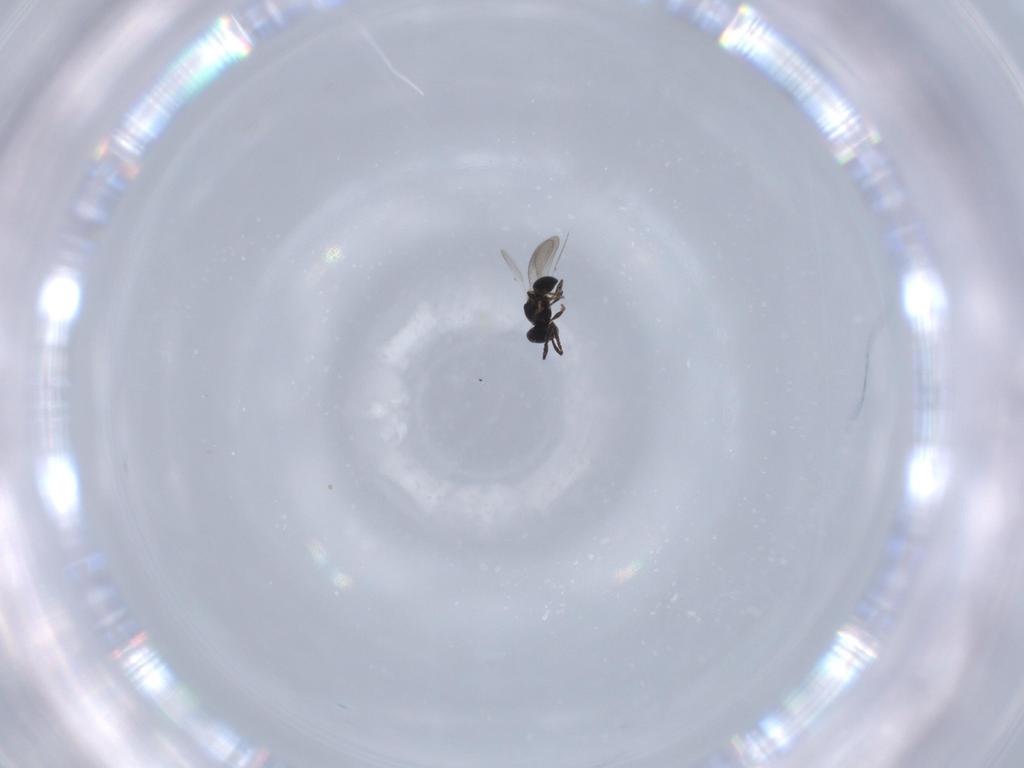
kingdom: Animalia
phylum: Arthropoda
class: Insecta
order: Hymenoptera
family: Platygastridae
